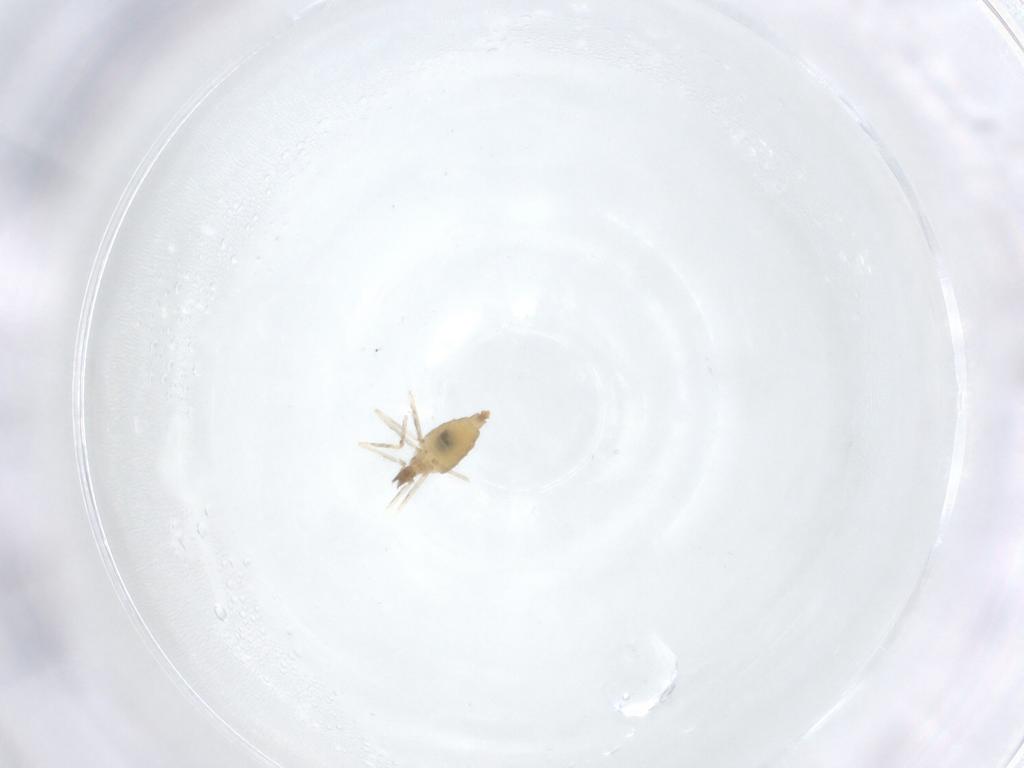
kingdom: Animalia
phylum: Arthropoda
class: Insecta
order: Diptera
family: Cecidomyiidae
